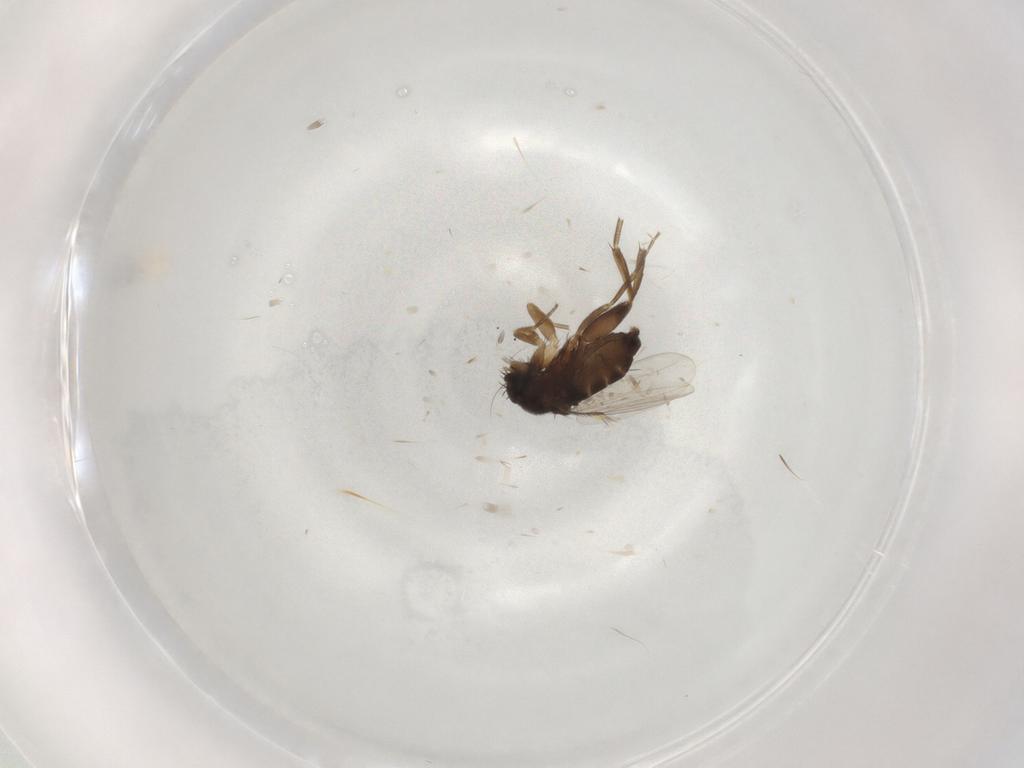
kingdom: Animalia
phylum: Arthropoda
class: Insecta
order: Diptera
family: Phoridae
